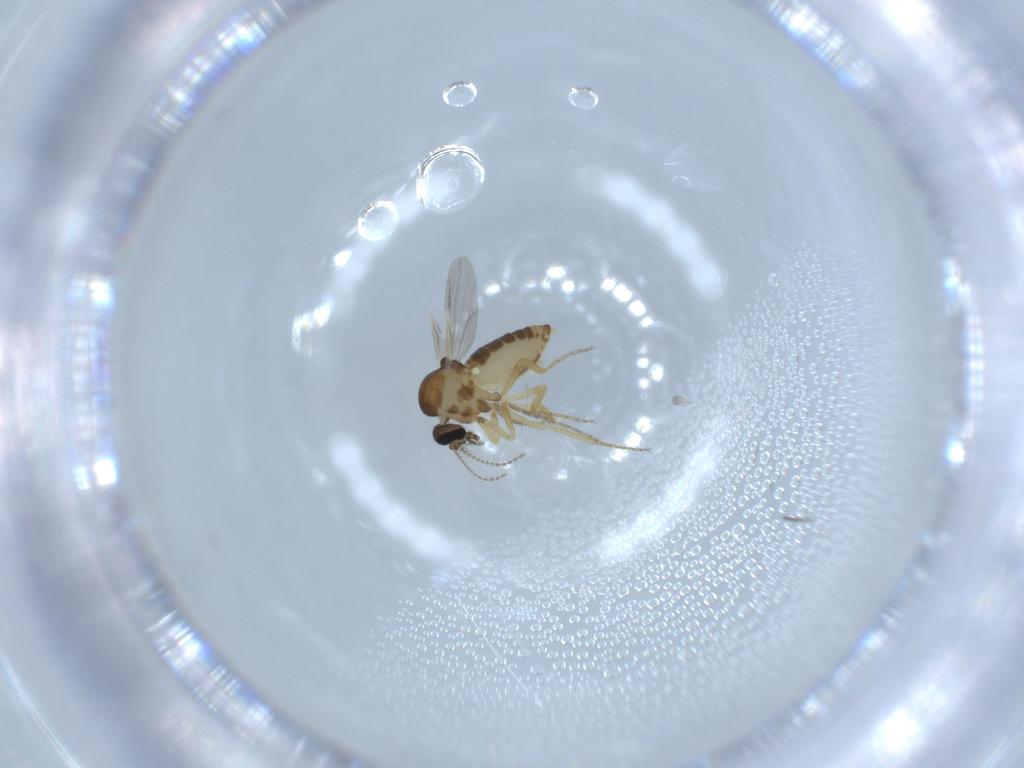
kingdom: Animalia
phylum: Arthropoda
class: Insecta
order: Diptera
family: Ceratopogonidae
